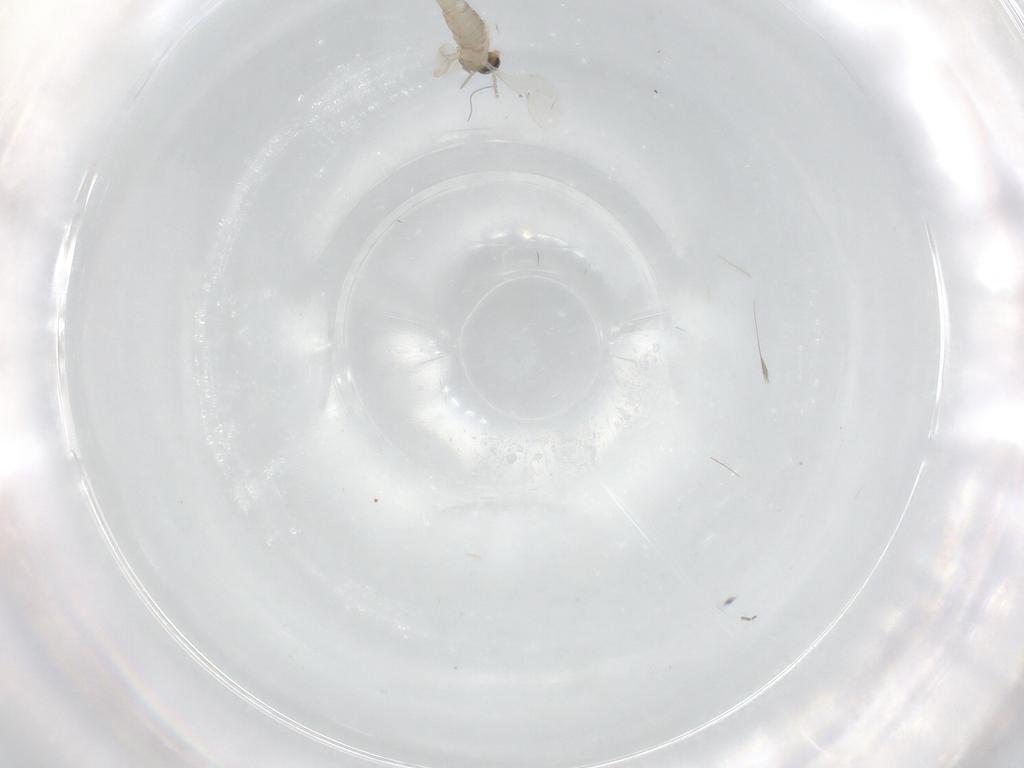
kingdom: Animalia
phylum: Arthropoda
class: Insecta
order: Diptera
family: Cecidomyiidae
